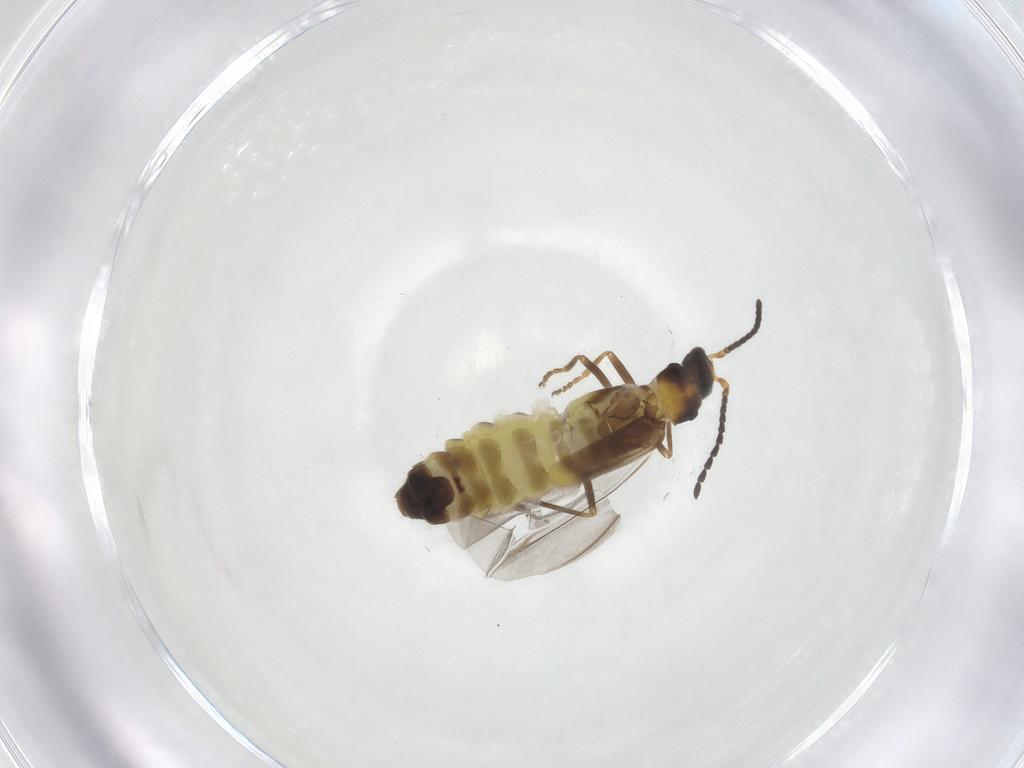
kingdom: Animalia
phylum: Arthropoda
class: Insecta
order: Coleoptera
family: Cantharidae
